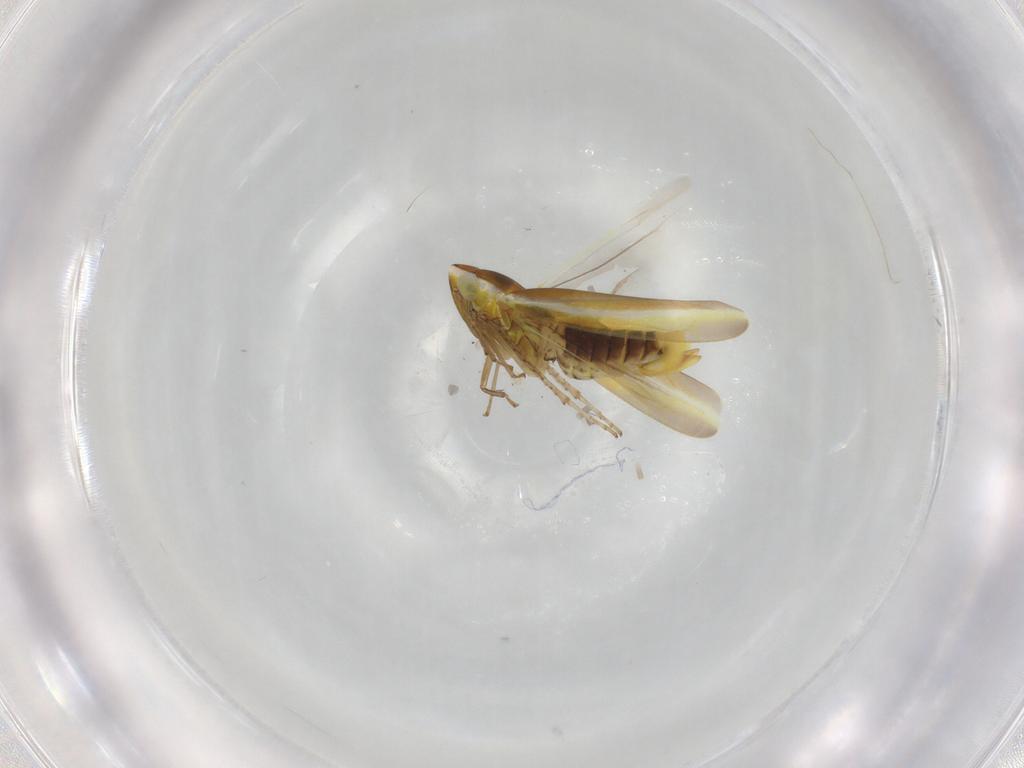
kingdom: Animalia
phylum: Arthropoda
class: Insecta
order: Hemiptera
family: Cicadellidae
